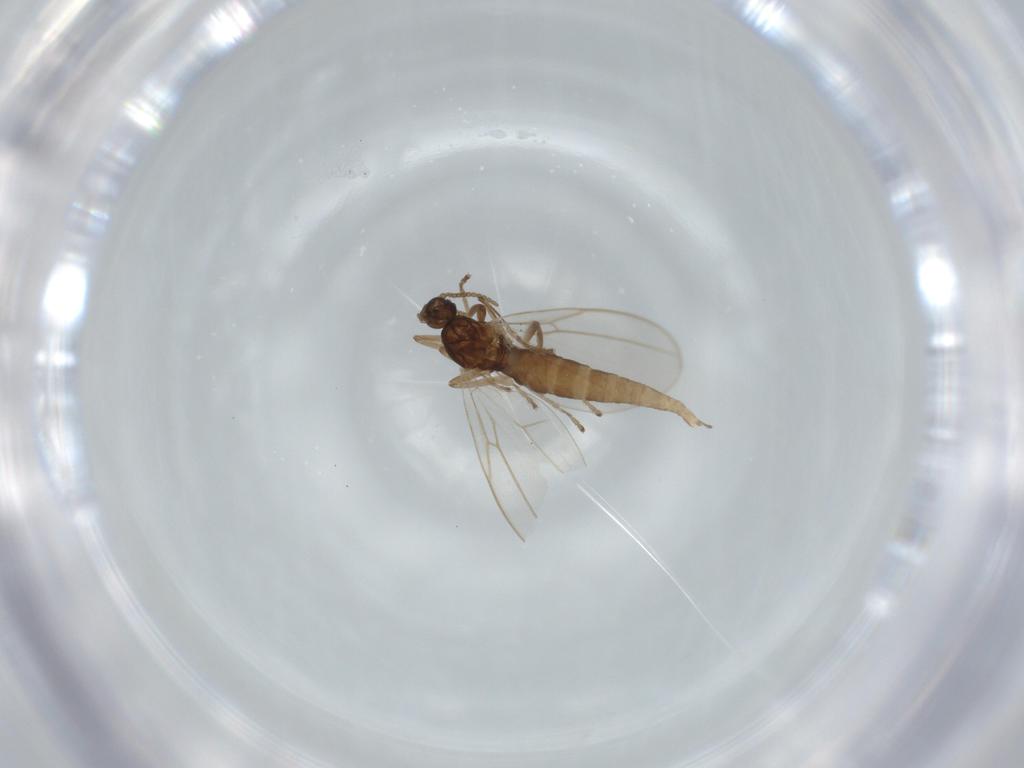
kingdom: Animalia
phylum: Arthropoda
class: Insecta
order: Diptera
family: Cecidomyiidae
